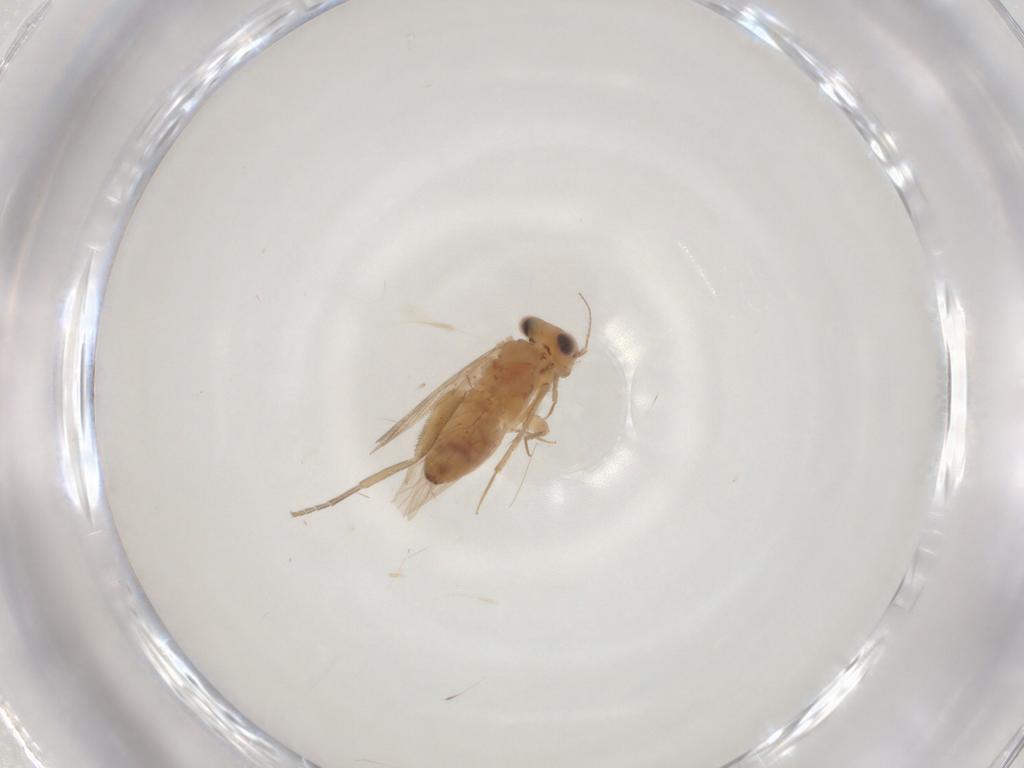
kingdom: Animalia
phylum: Arthropoda
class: Insecta
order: Psocodea
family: Lepidopsocidae
